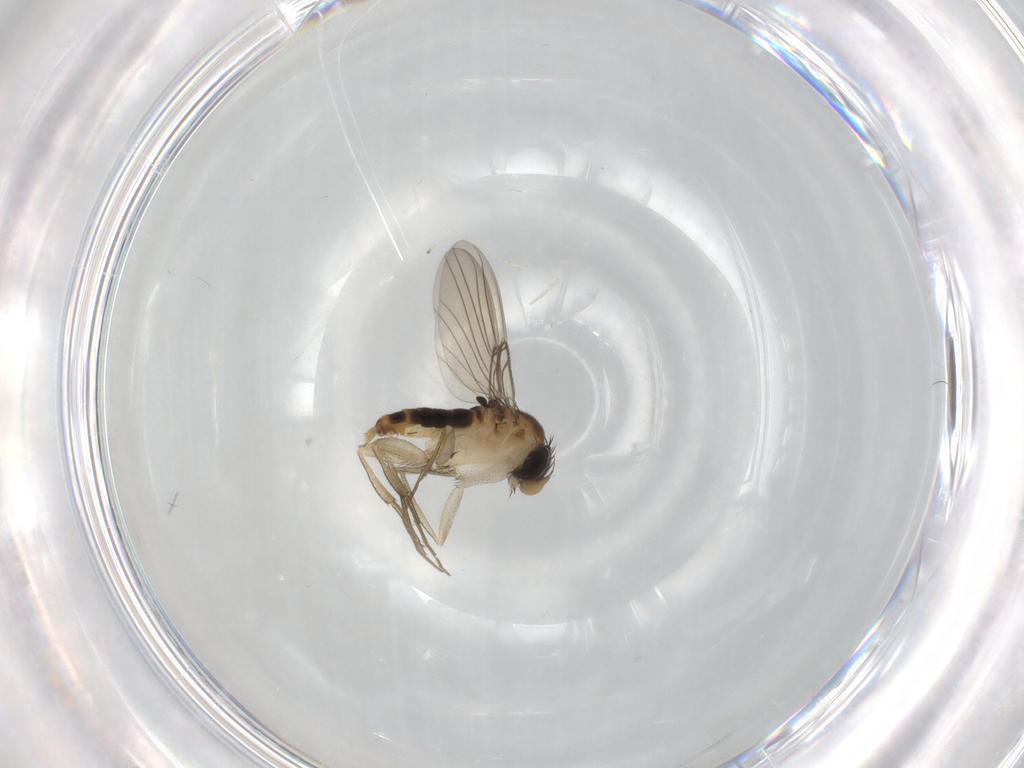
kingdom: Animalia
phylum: Arthropoda
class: Insecta
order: Diptera
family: Phoridae
